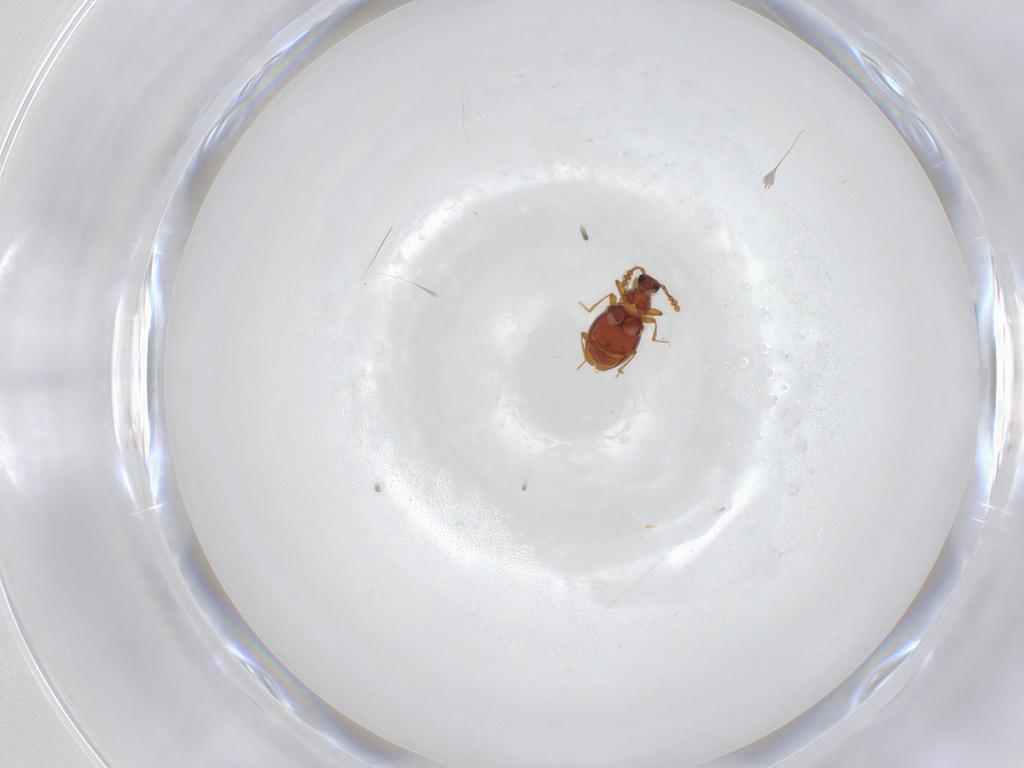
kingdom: Animalia
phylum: Arthropoda
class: Insecta
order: Coleoptera
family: Staphylinidae
